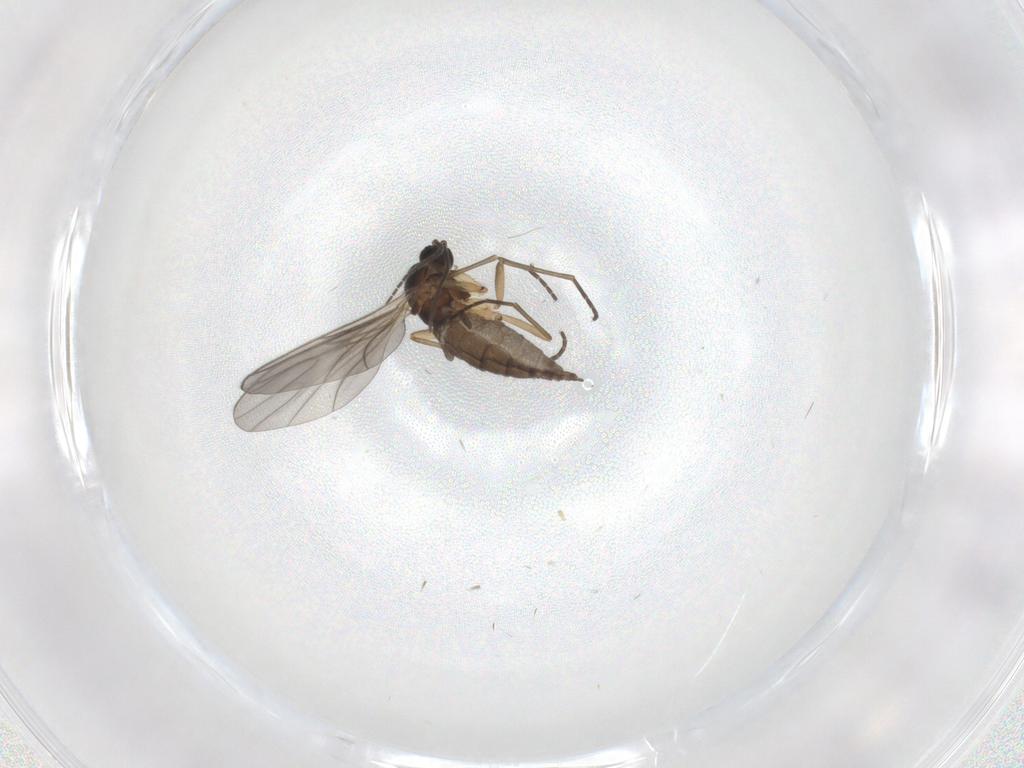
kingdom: Animalia
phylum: Arthropoda
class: Insecta
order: Diptera
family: Sciaridae
